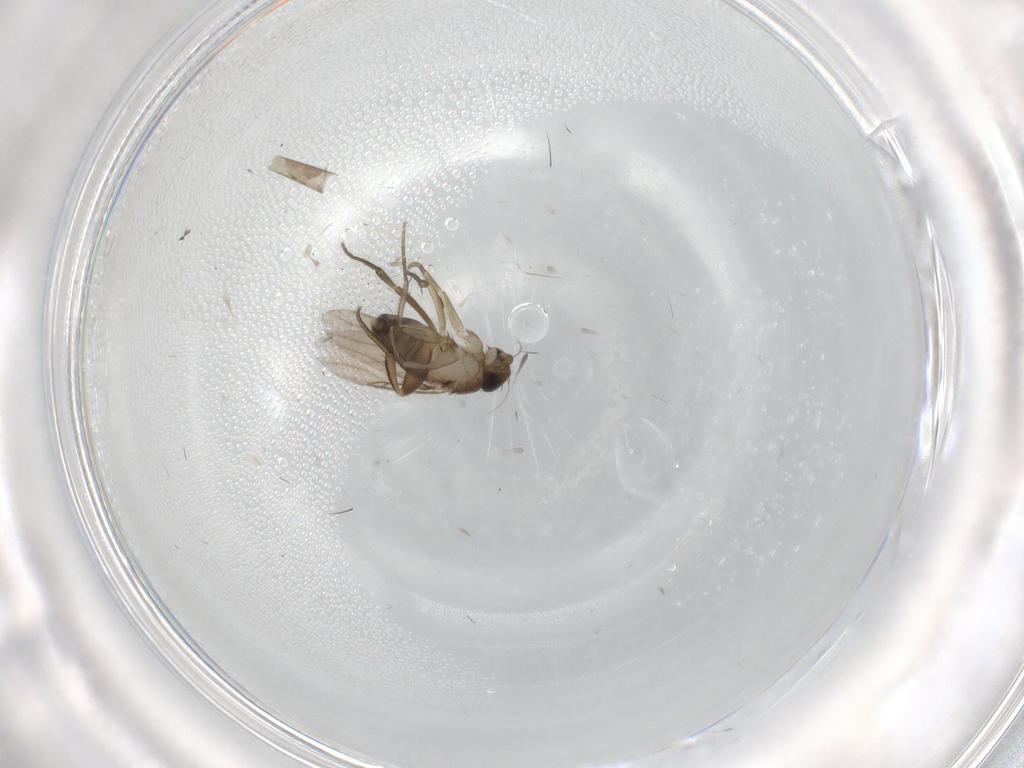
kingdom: Animalia
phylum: Arthropoda
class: Insecta
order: Diptera
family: Phoridae
